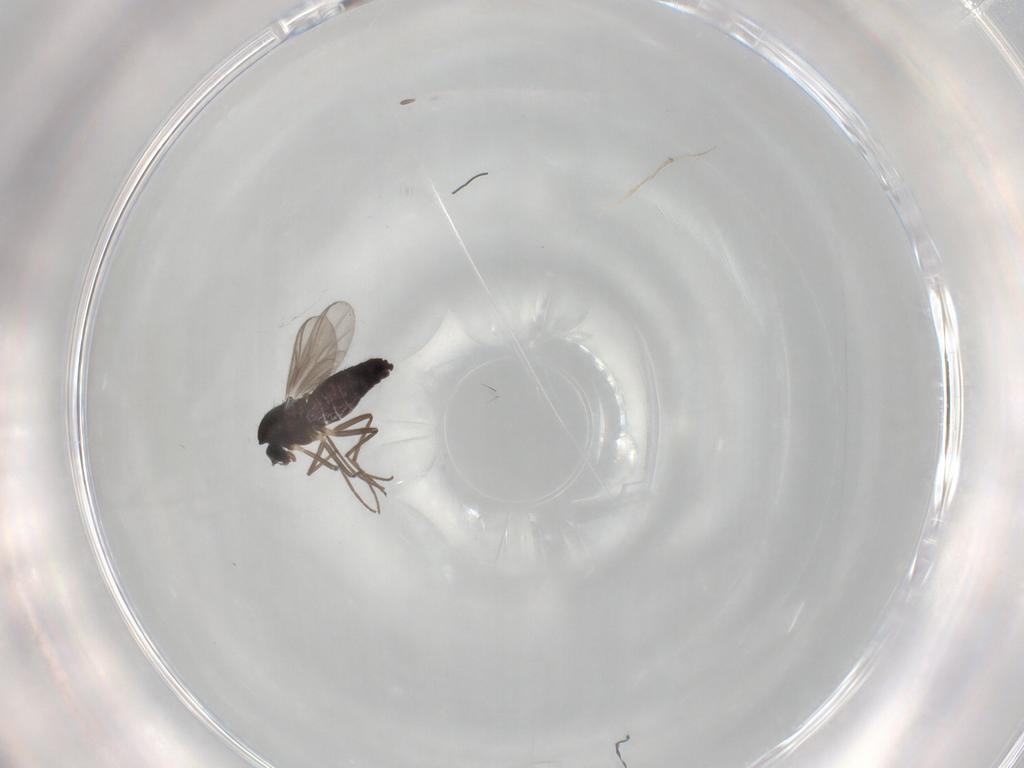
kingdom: Animalia
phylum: Arthropoda
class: Insecta
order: Diptera
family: Chironomidae
